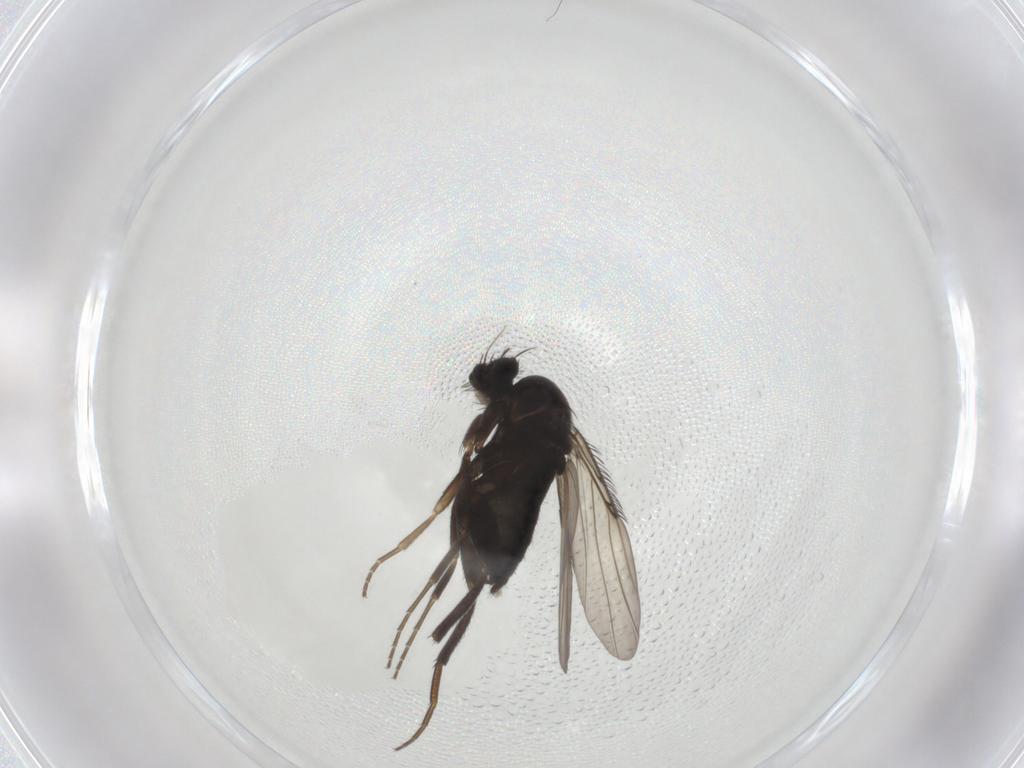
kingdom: Animalia
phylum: Arthropoda
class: Insecta
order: Diptera
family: Phoridae
